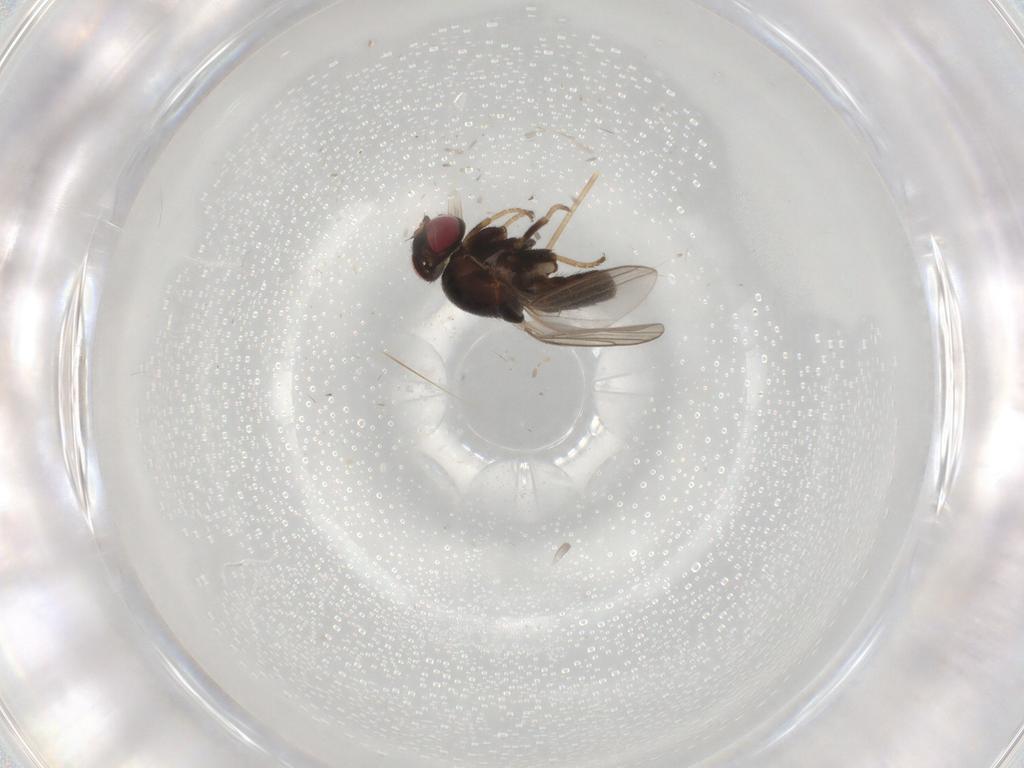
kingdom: Animalia
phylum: Arthropoda
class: Insecta
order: Diptera
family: Chloropidae
